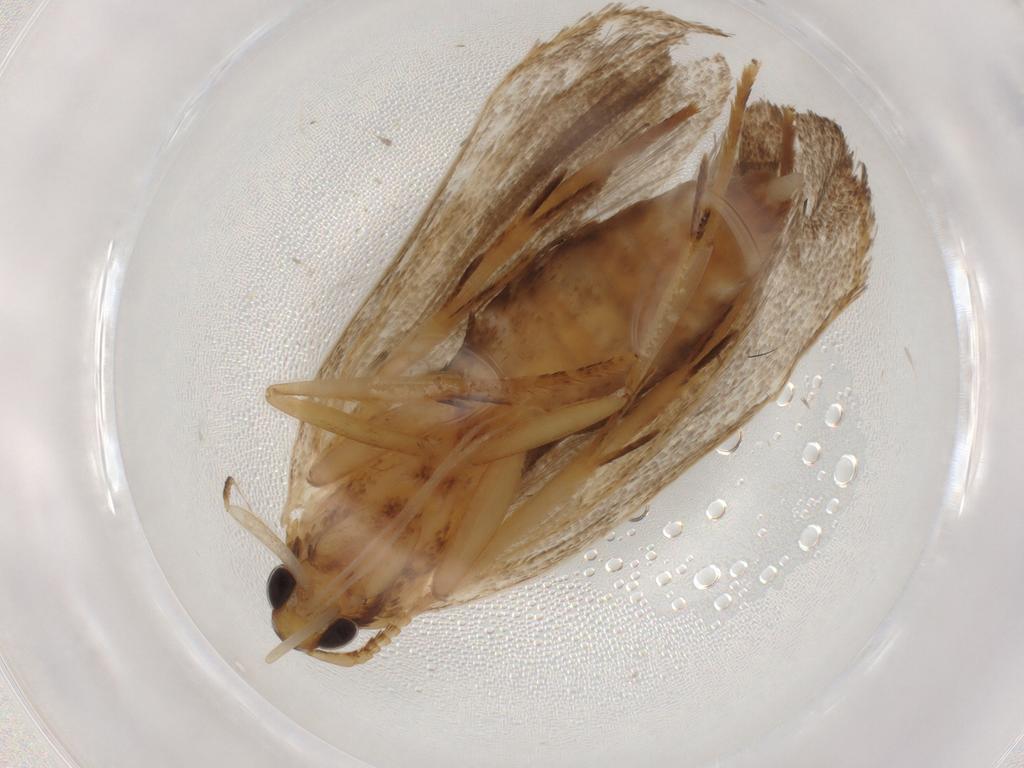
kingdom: Animalia
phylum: Arthropoda
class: Insecta
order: Lepidoptera
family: Lecithoceridae
